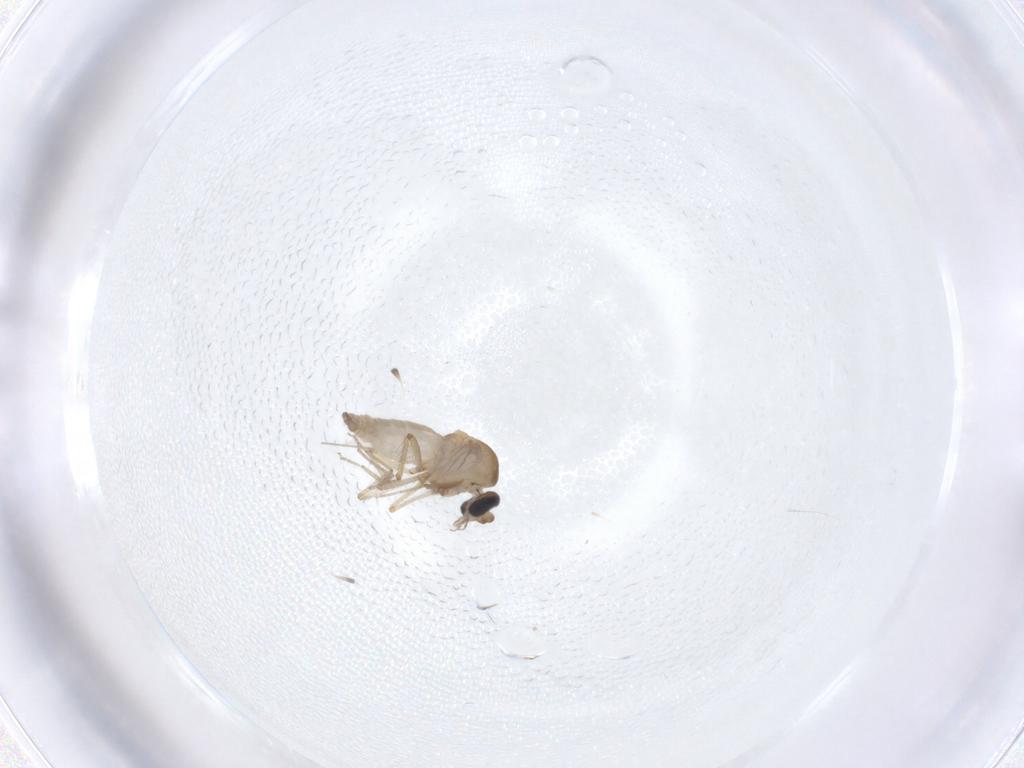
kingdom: Animalia
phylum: Arthropoda
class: Insecta
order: Diptera
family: Ceratopogonidae
